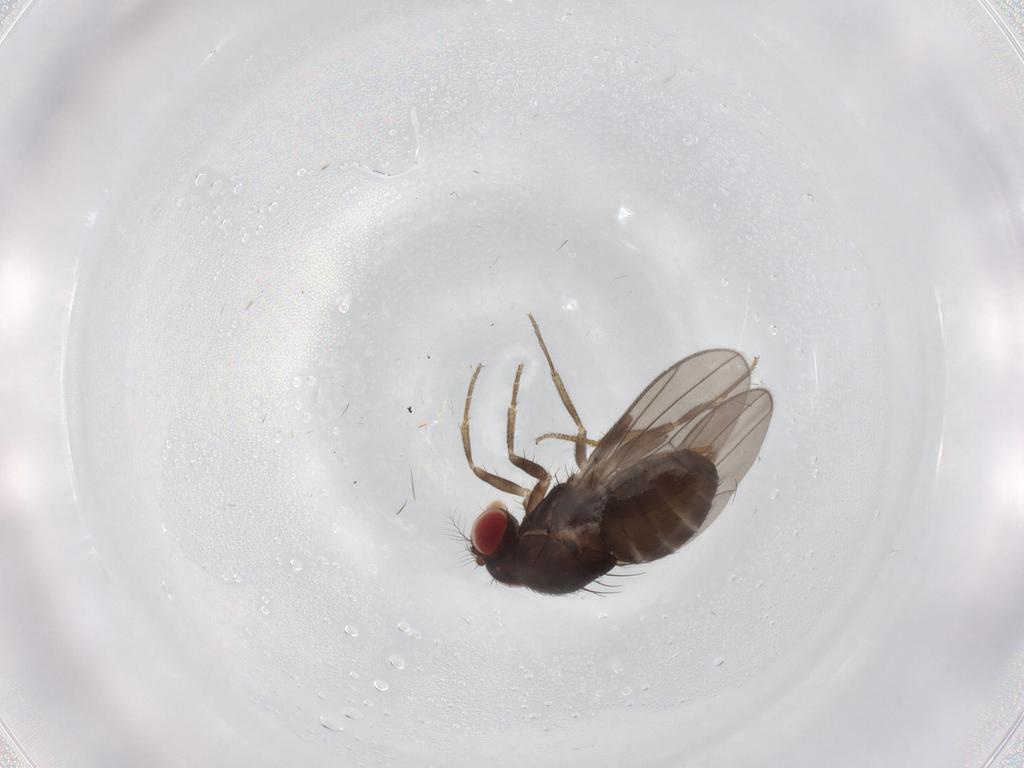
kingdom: Animalia
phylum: Arthropoda
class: Insecta
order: Diptera
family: Drosophilidae
